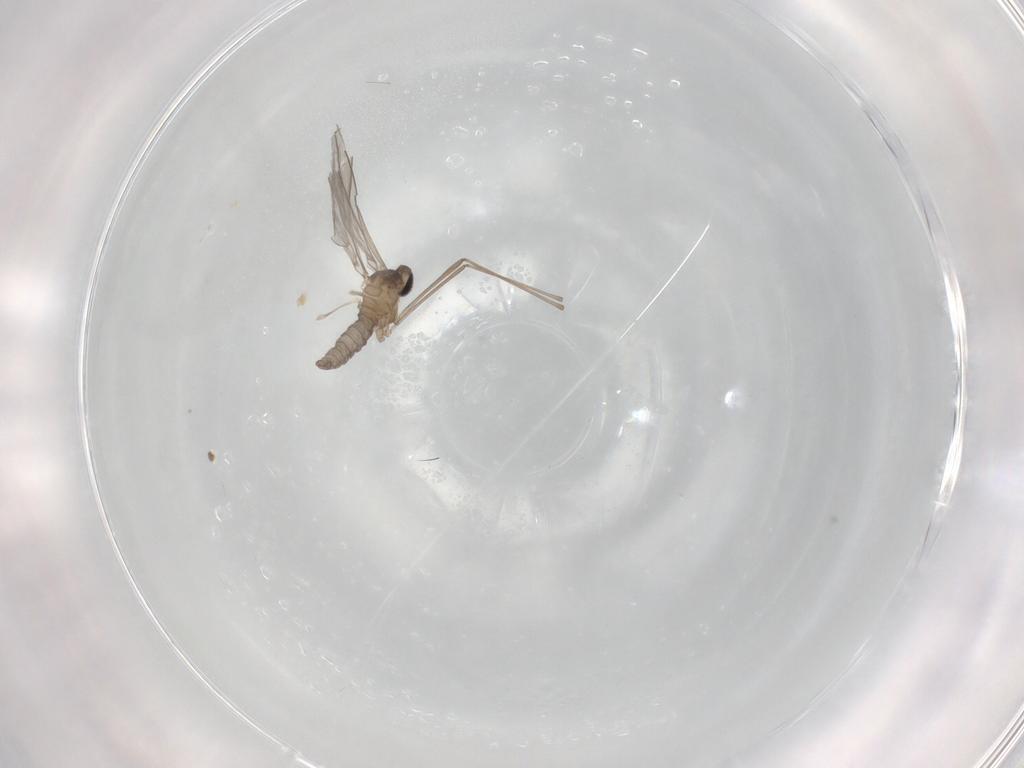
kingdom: Animalia
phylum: Arthropoda
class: Insecta
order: Diptera
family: Cecidomyiidae
